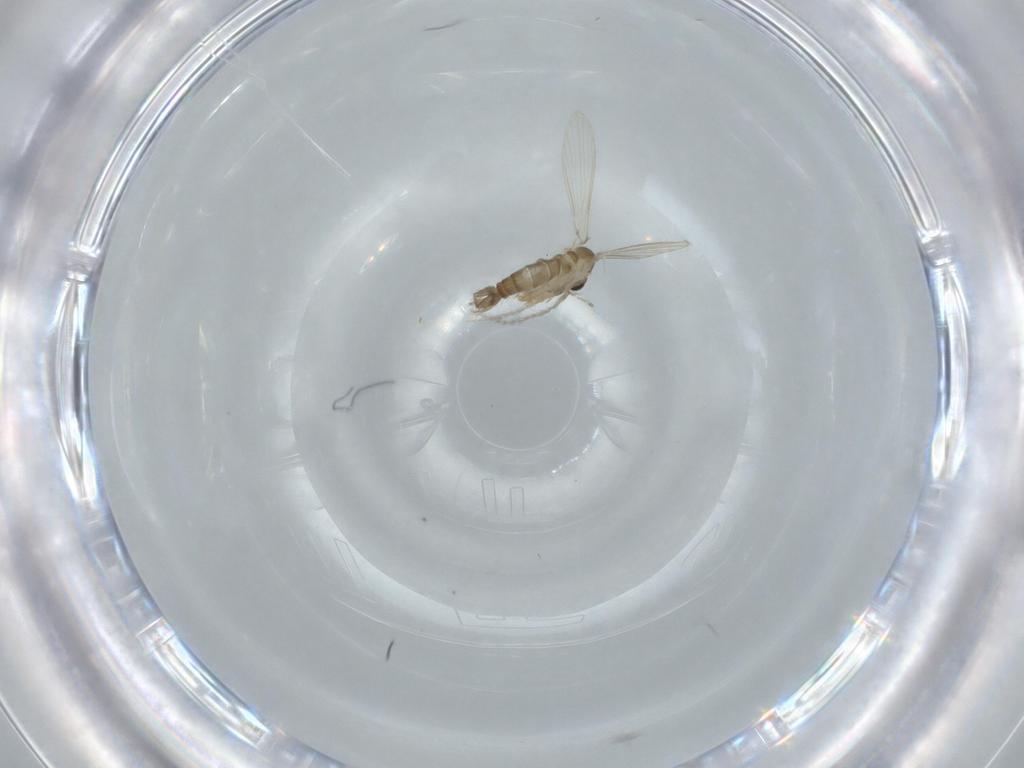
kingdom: Animalia
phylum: Arthropoda
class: Insecta
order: Diptera
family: Psychodidae
